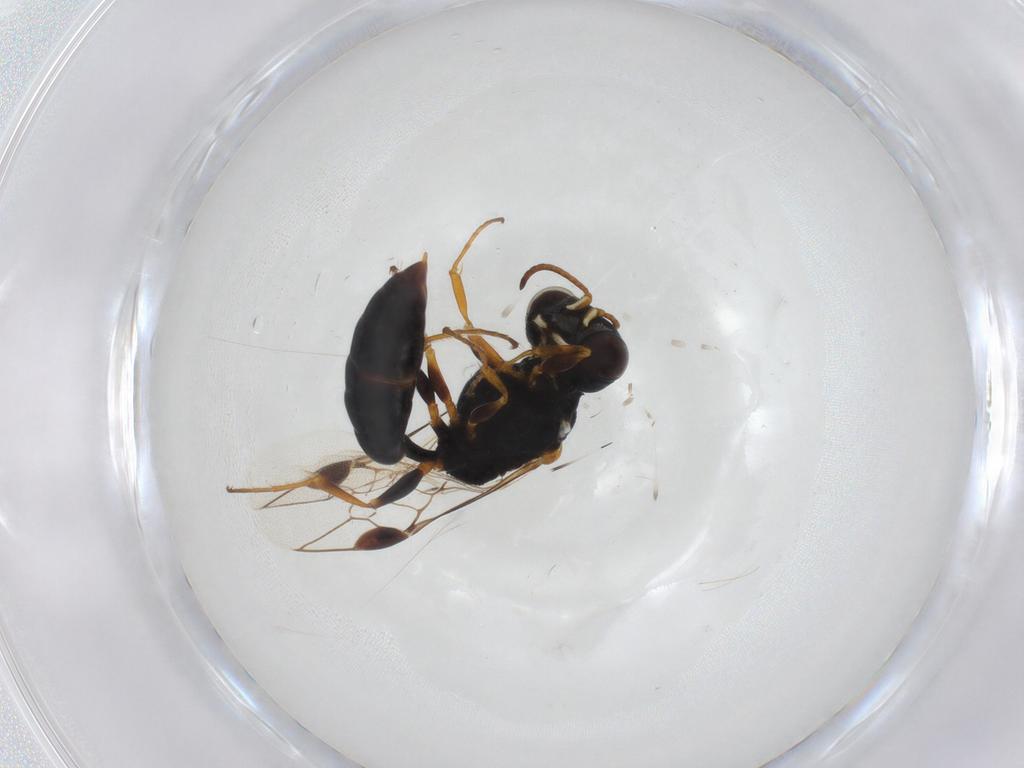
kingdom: Animalia
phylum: Arthropoda
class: Insecta
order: Hymenoptera
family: Pemphredonidae
